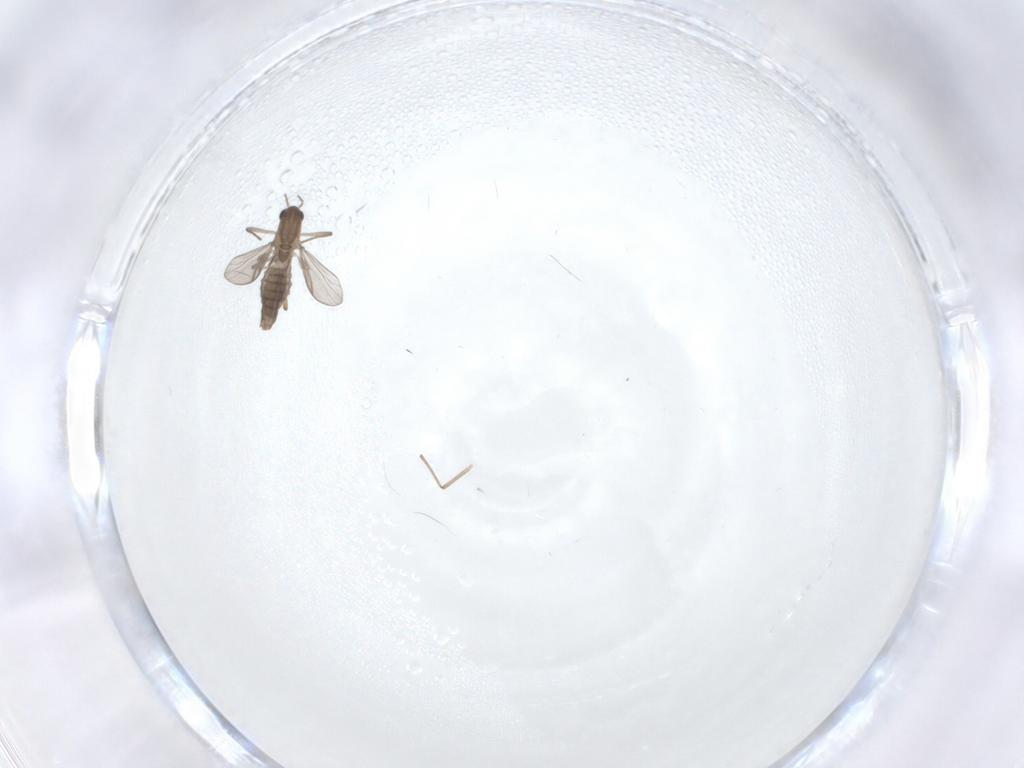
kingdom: Animalia
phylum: Arthropoda
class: Insecta
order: Diptera
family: Chironomidae
